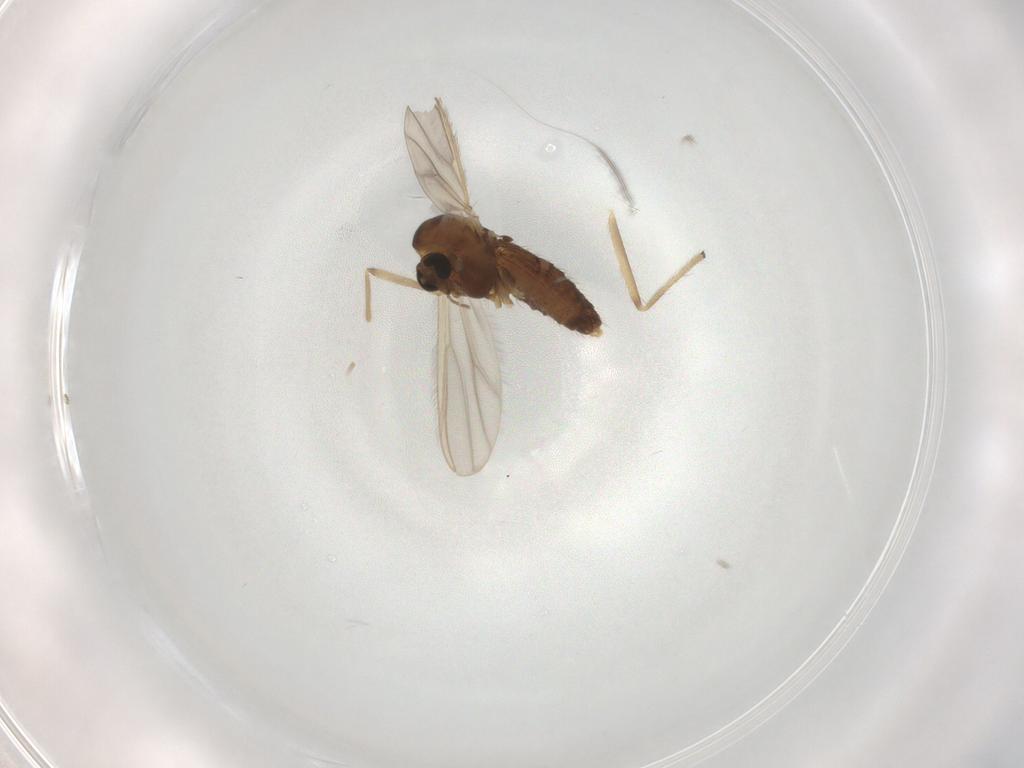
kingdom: Animalia
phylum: Arthropoda
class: Insecta
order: Diptera
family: Chironomidae
